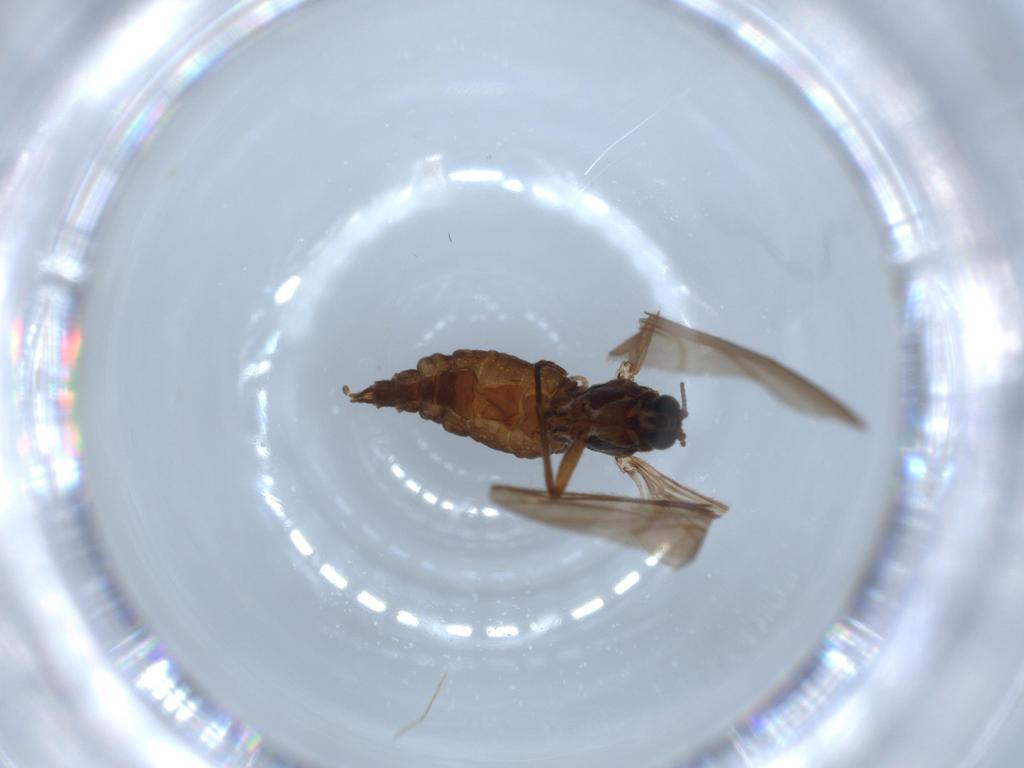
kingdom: Animalia
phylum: Arthropoda
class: Insecta
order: Diptera
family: Sciaridae
